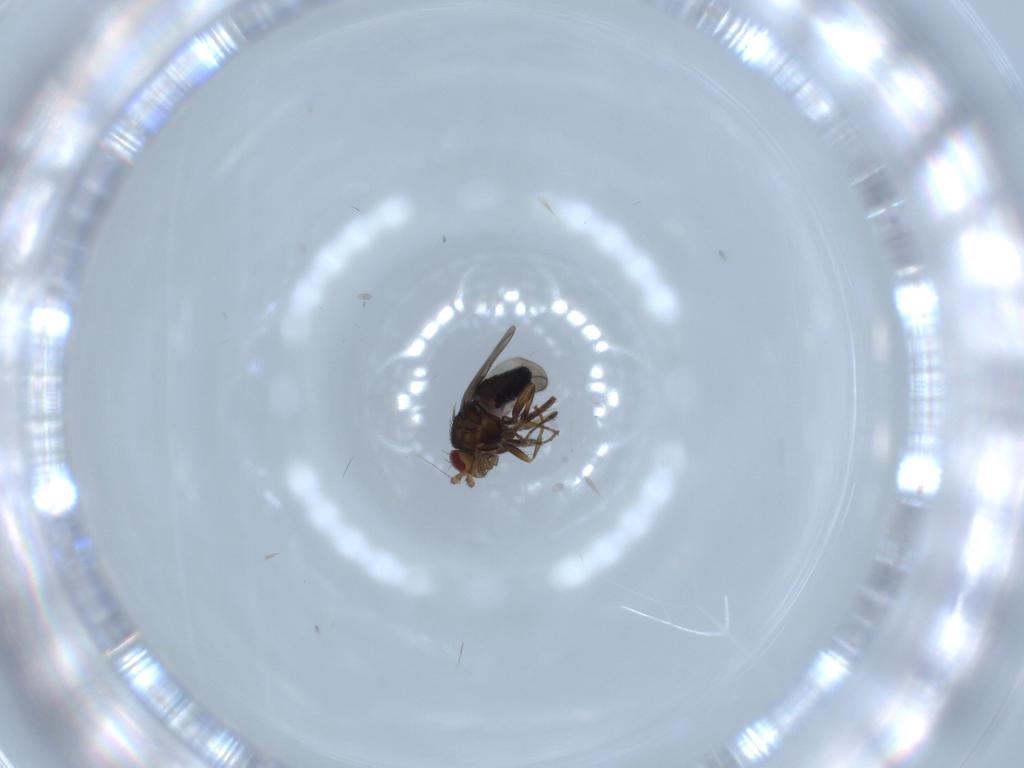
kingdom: Animalia
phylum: Arthropoda
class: Insecta
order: Diptera
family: Sphaeroceridae
